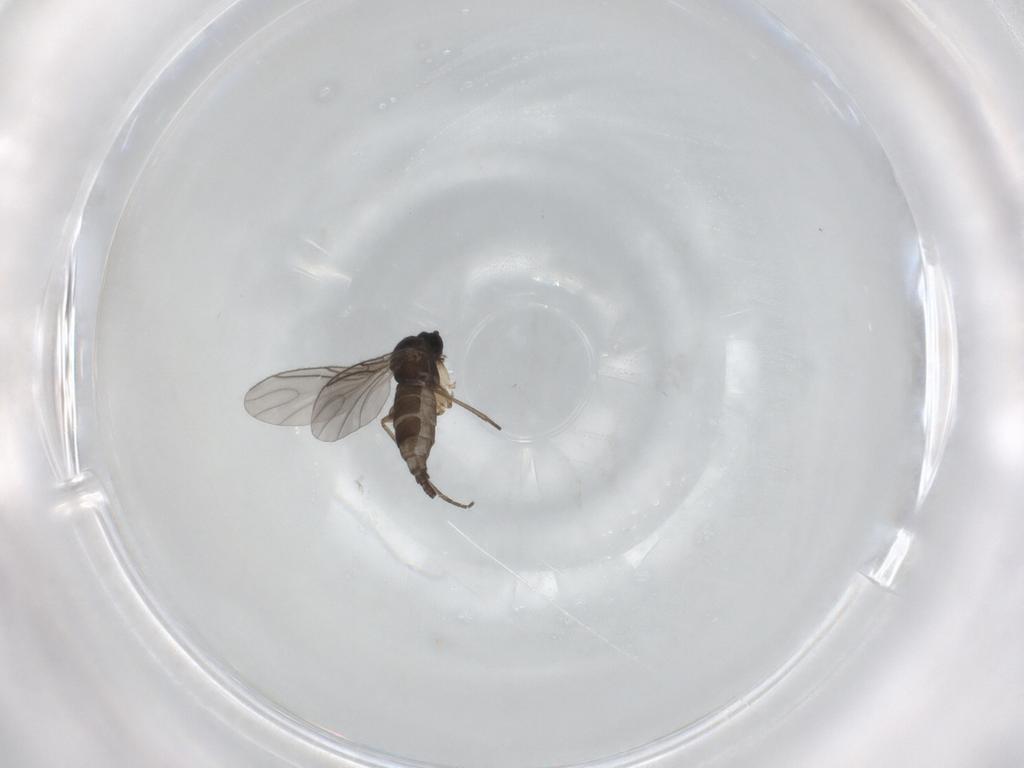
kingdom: Animalia
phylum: Arthropoda
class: Insecta
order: Diptera
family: Sciaridae
